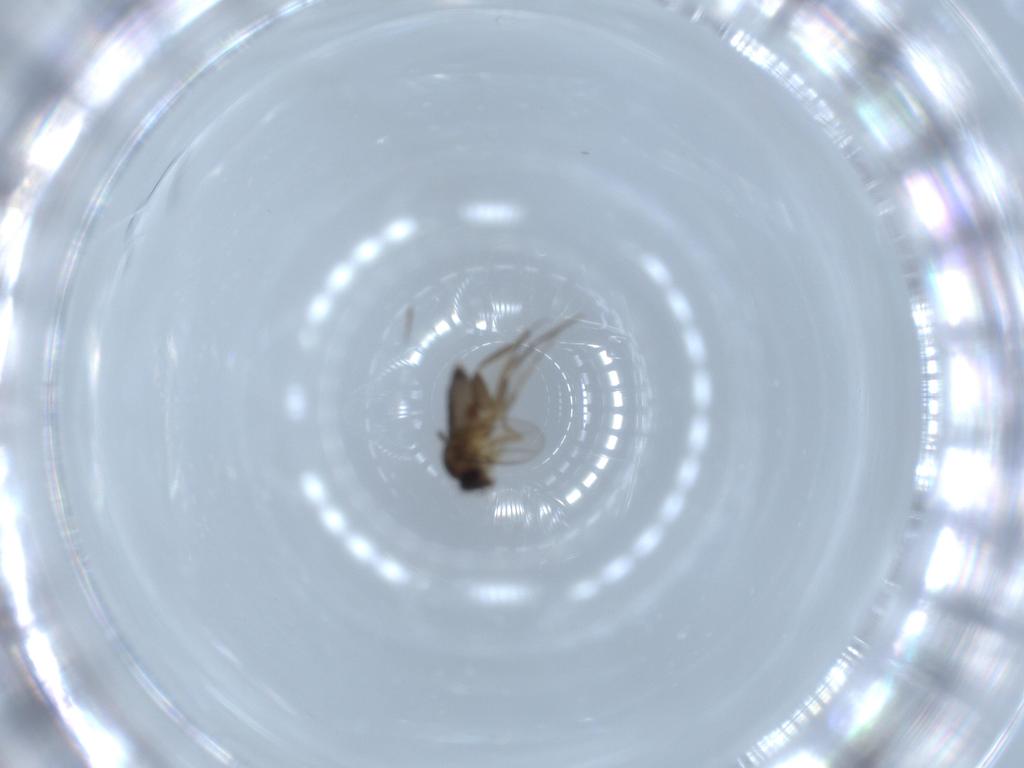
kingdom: Animalia
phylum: Arthropoda
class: Insecta
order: Diptera
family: Phoridae
